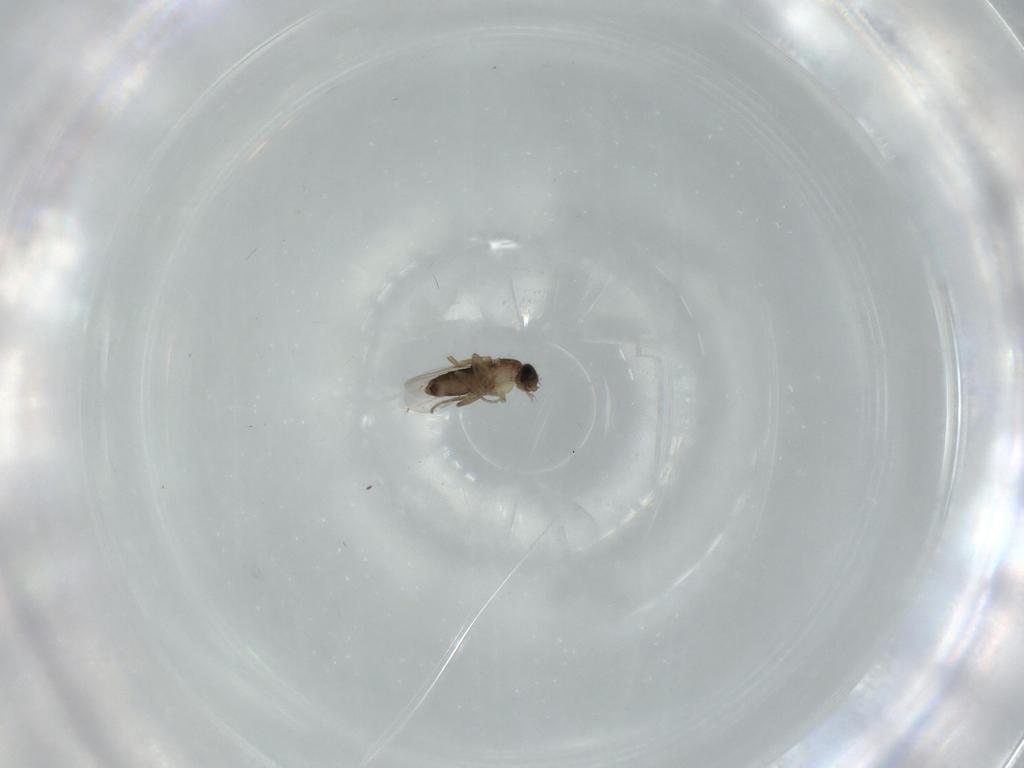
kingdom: Animalia
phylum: Arthropoda
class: Insecta
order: Diptera
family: Phoridae
